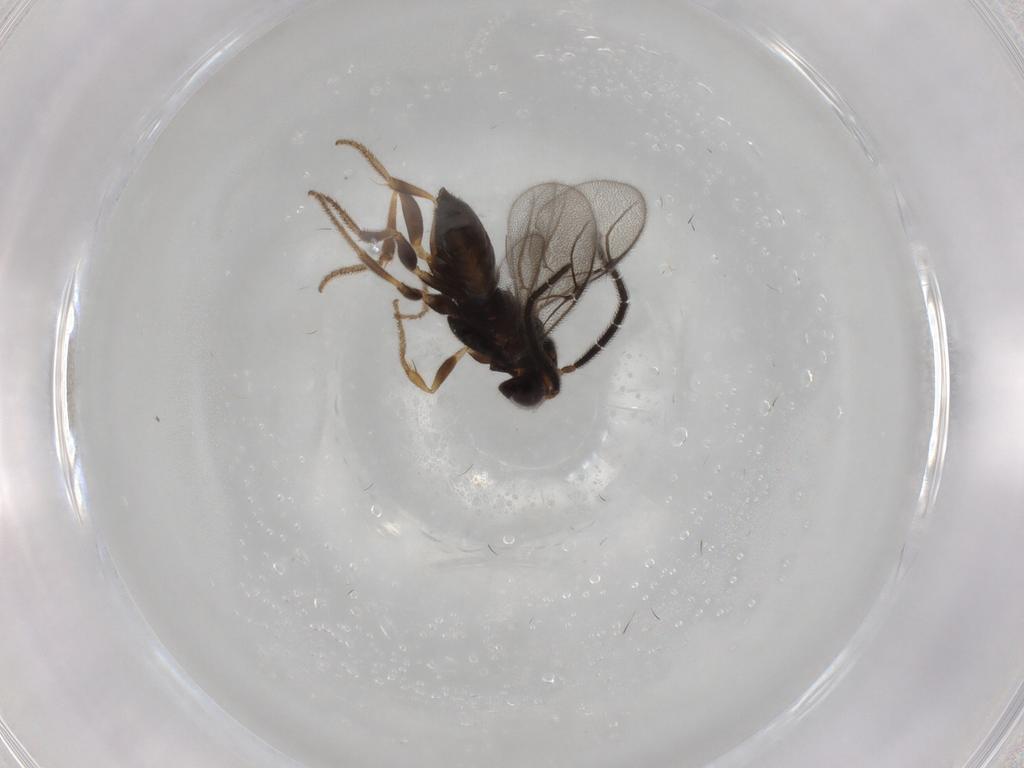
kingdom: Animalia
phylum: Arthropoda
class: Insecta
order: Hymenoptera
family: Dryinidae
